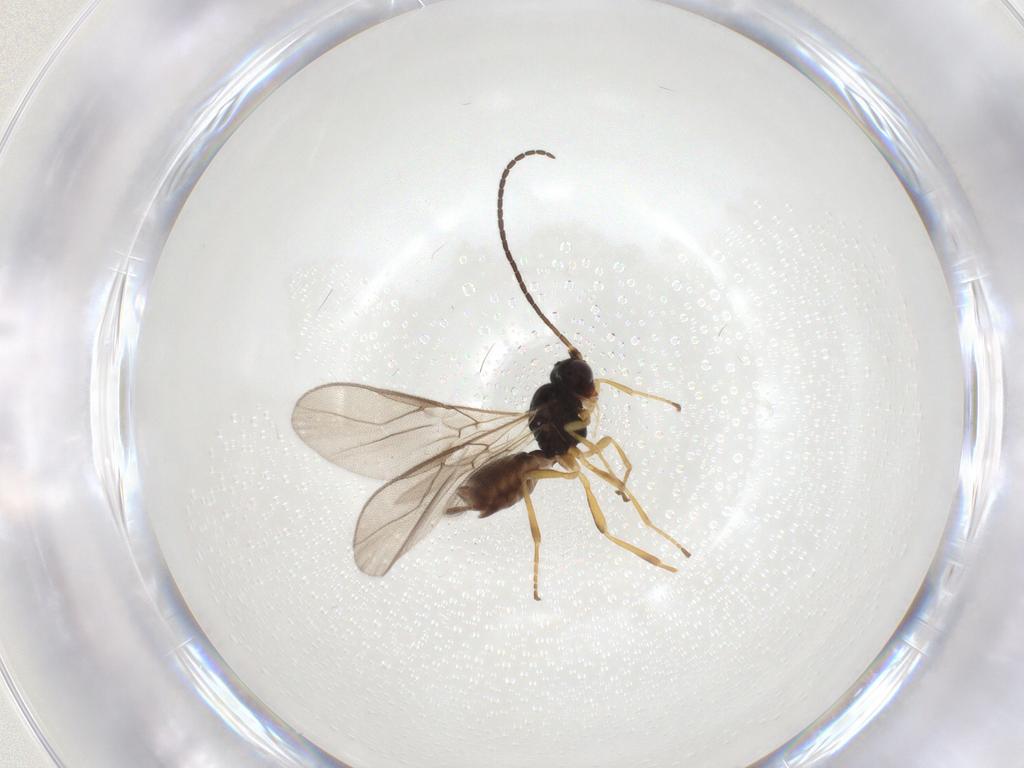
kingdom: Animalia
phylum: Arthropoda
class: Insecta
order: Hymenoptera
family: Braconidae
